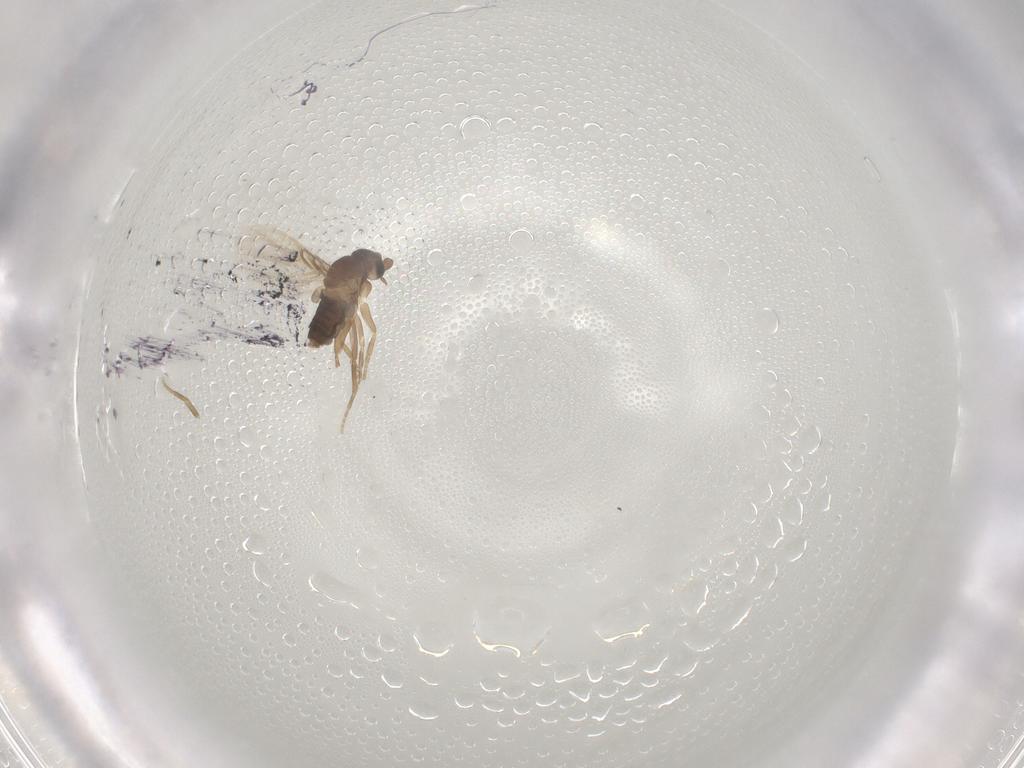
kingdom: Animalia
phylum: Arthropoda
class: Insecta
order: Diptera
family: Phoridae
